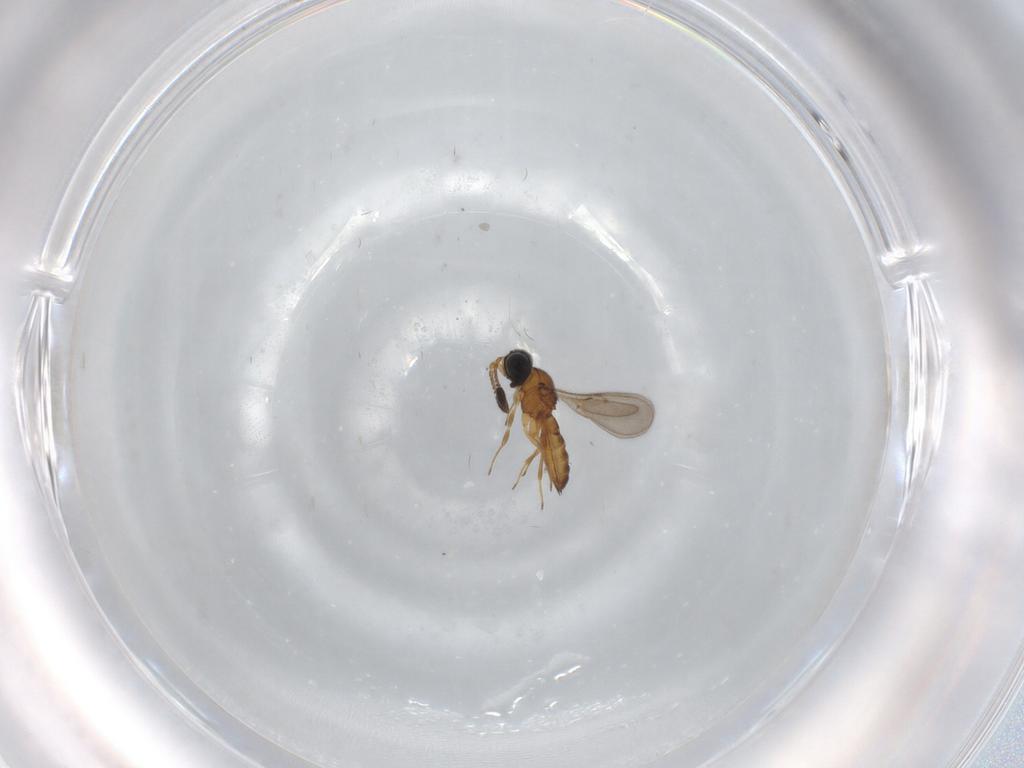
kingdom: Animalia
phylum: Arthropoda
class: Insecta
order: Hymenoptera
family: Scelionidae
